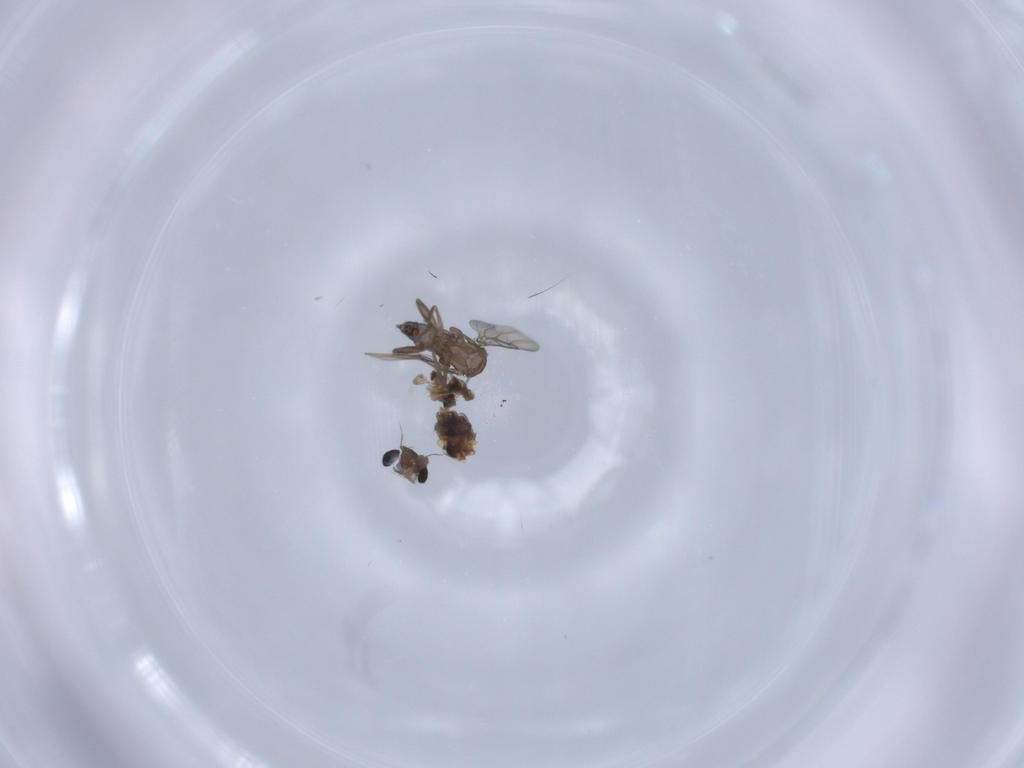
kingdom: Animalia
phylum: Arthropoda
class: Insecta
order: Diptera
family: Chironomidae
